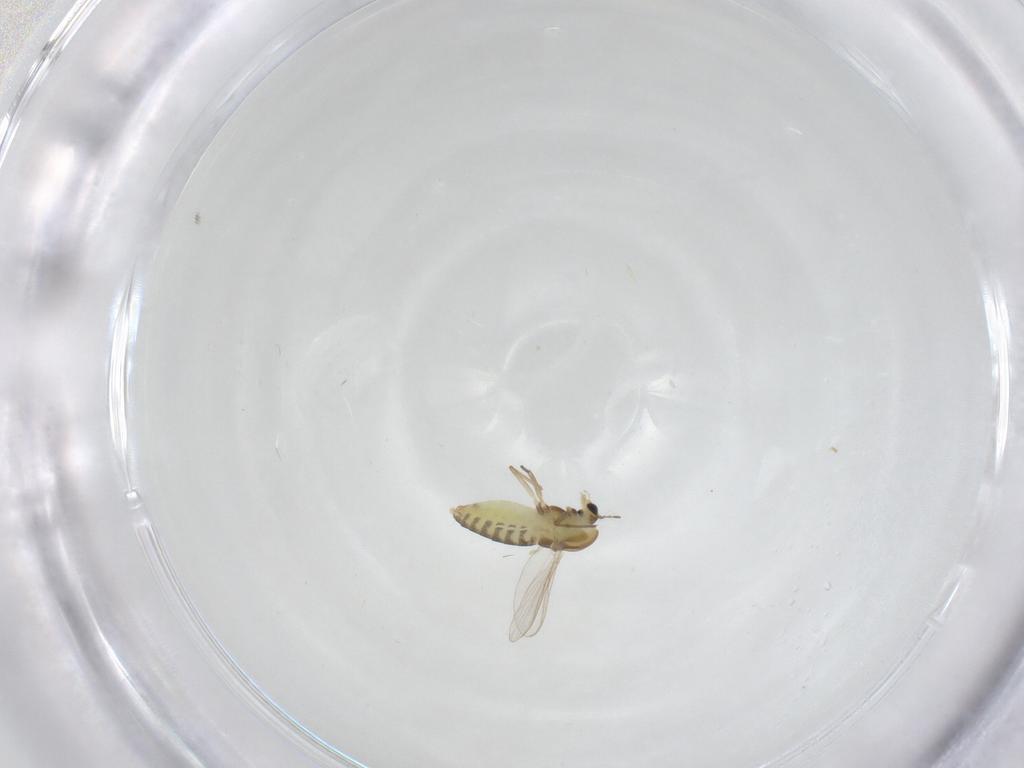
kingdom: Animalia
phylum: Arthropoda
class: Insecta
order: Diptera
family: Chironomidae
